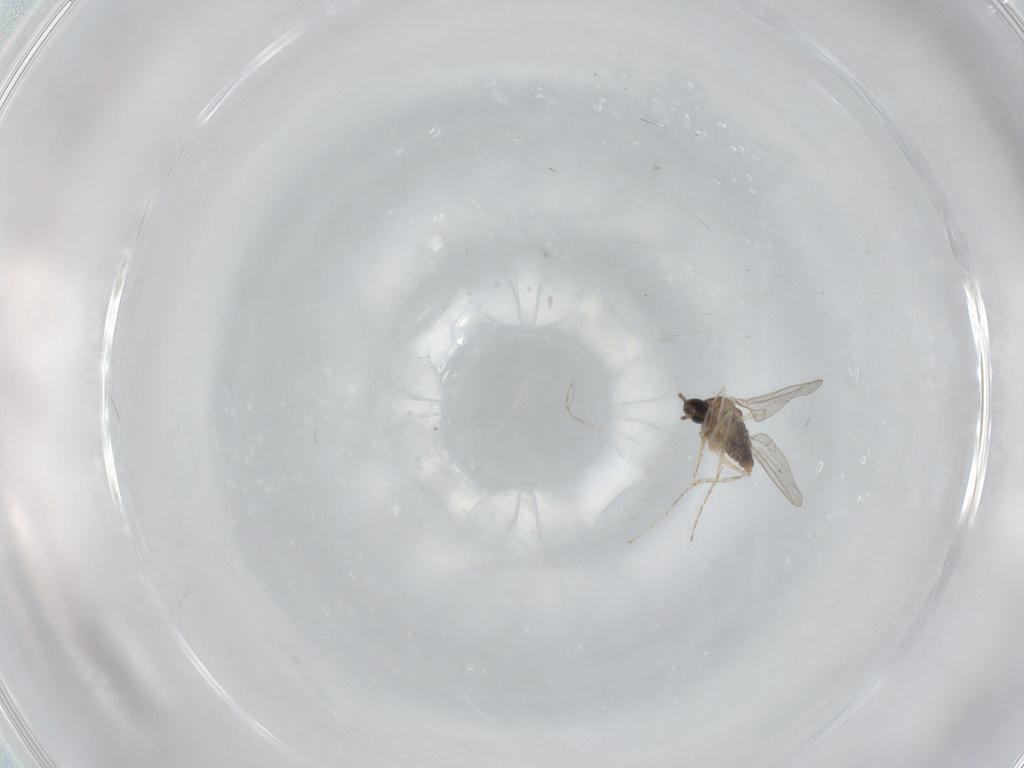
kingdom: Animalia
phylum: Arthropoda
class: Insecta
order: Diptera
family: Cecidomyiidae
